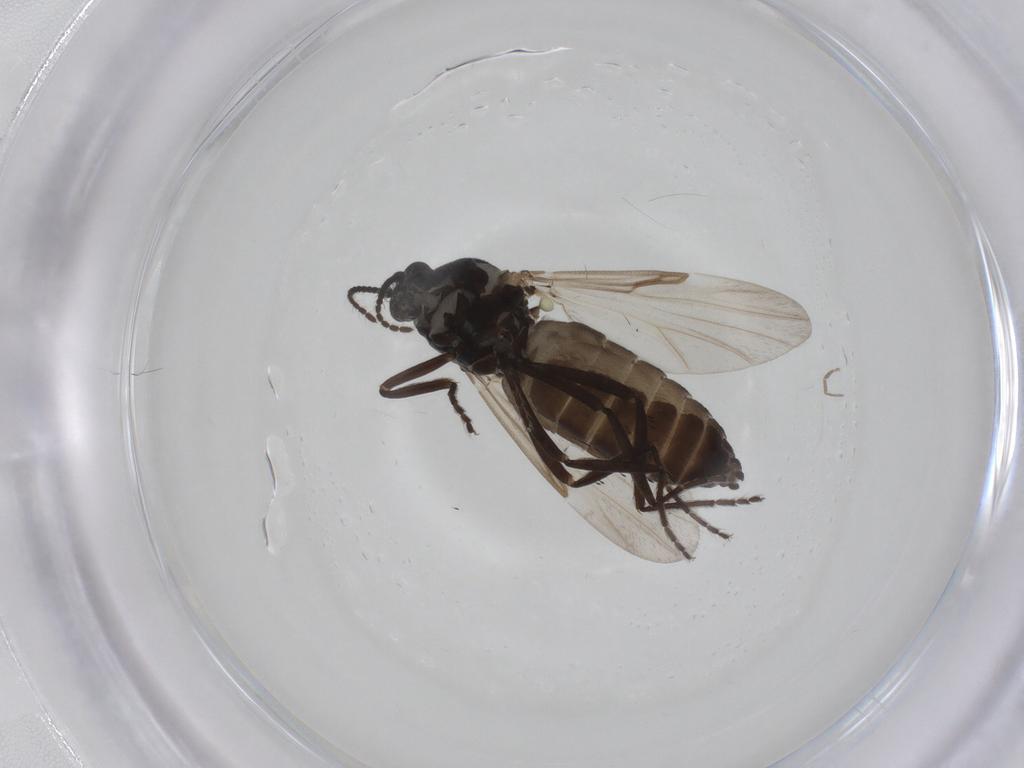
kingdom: Animalia
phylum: Arthropoda
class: Insecta
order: Diptera
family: Ceratopogonidae
